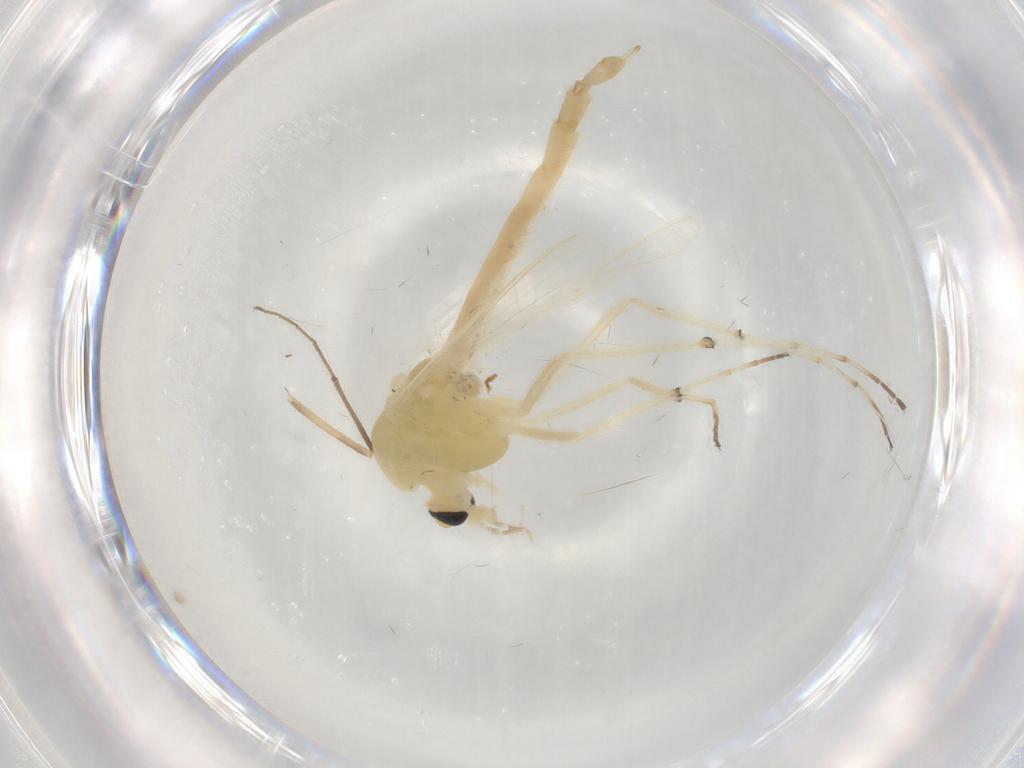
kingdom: Animalia
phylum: Arthropoda
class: Insecta
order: Diptera
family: Chironomidae
